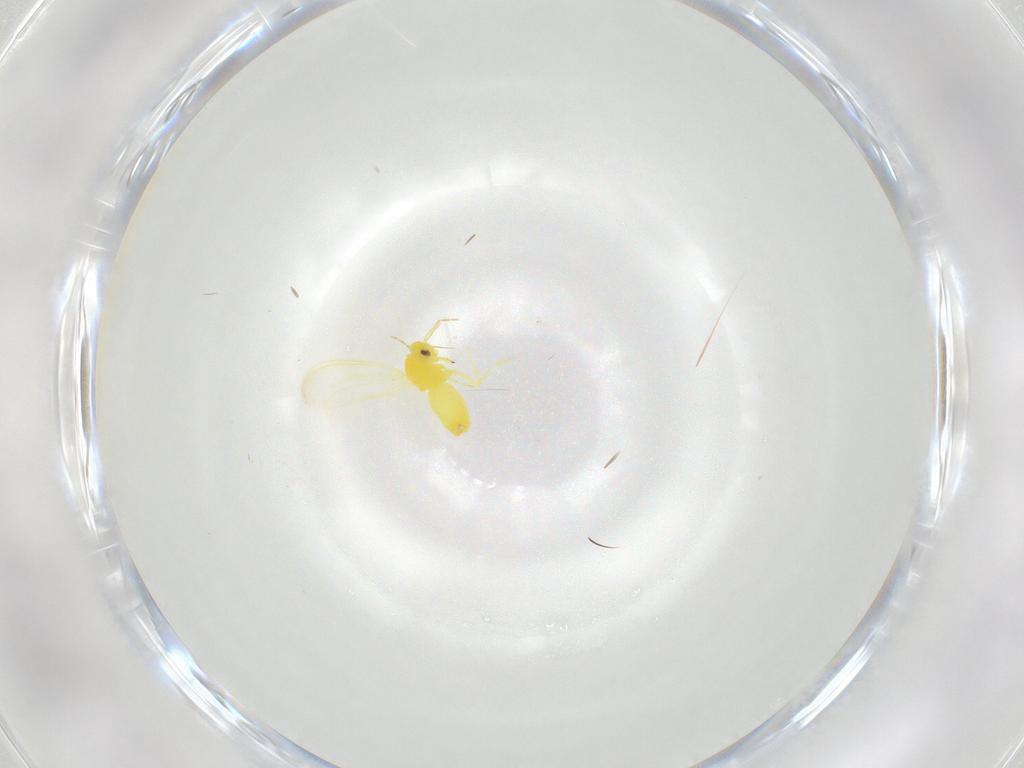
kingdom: Animalia
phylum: Arthropoda
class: Insecta
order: Hemiptera
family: Aleyrodidae
